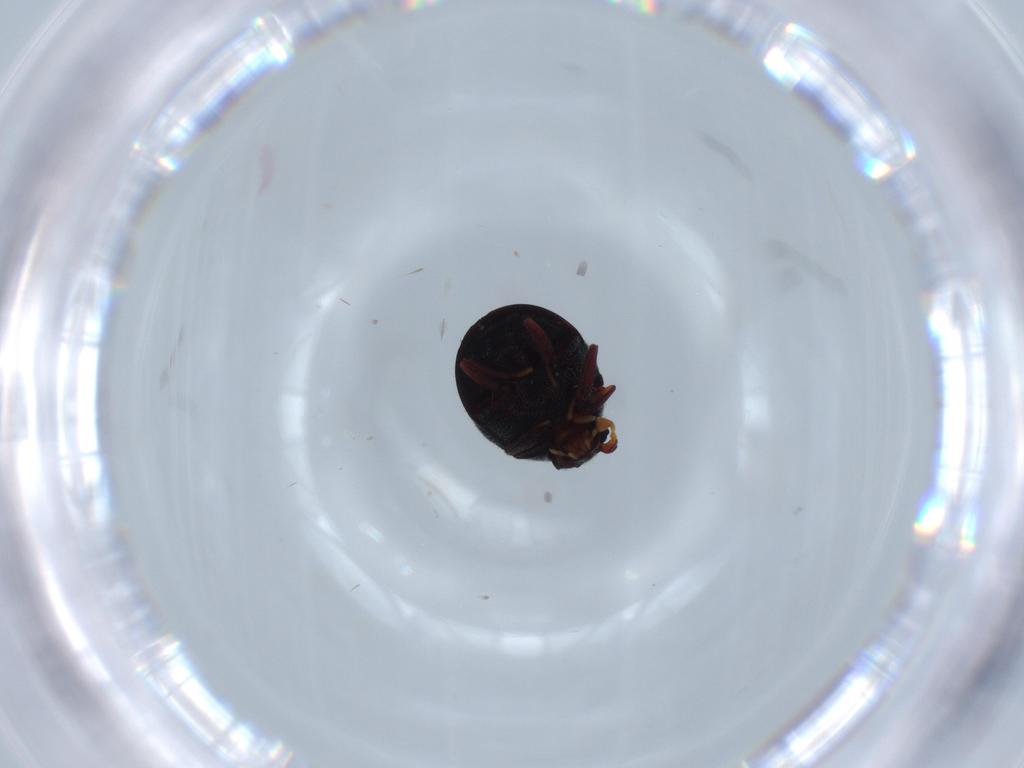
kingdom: Animalia
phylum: Arthropoda
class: Insecta
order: Coleoptera
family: Ptinidae
